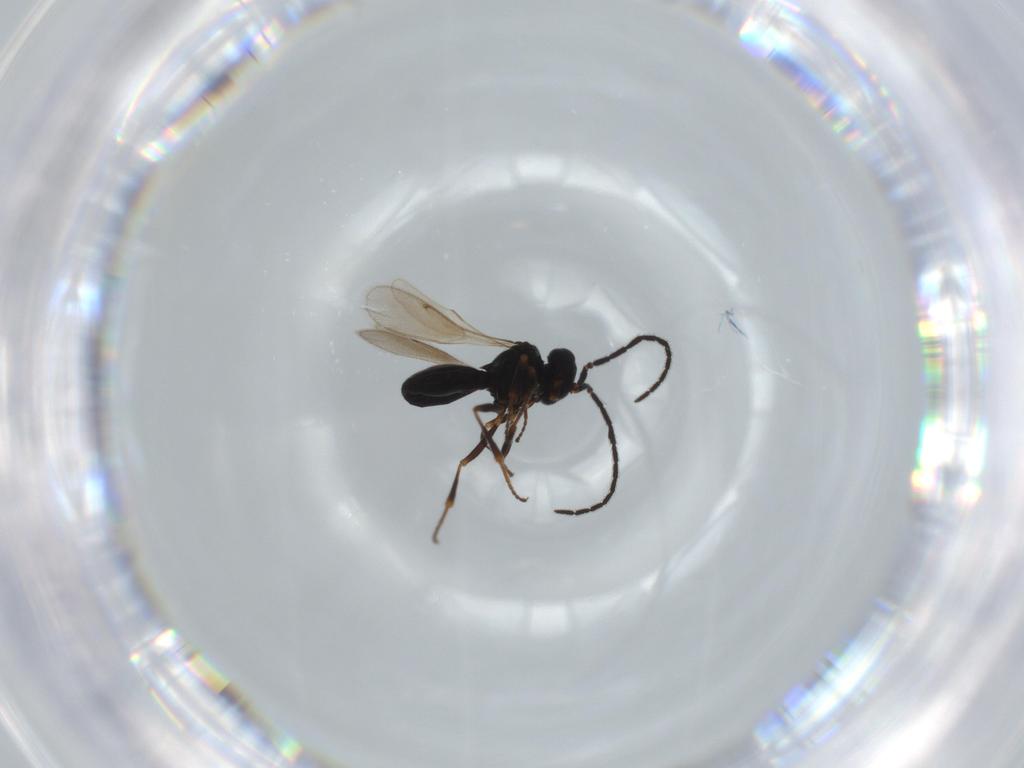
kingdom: Animalia
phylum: Arthropoda
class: Insecta
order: Hymenoptera
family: Scelionidae
